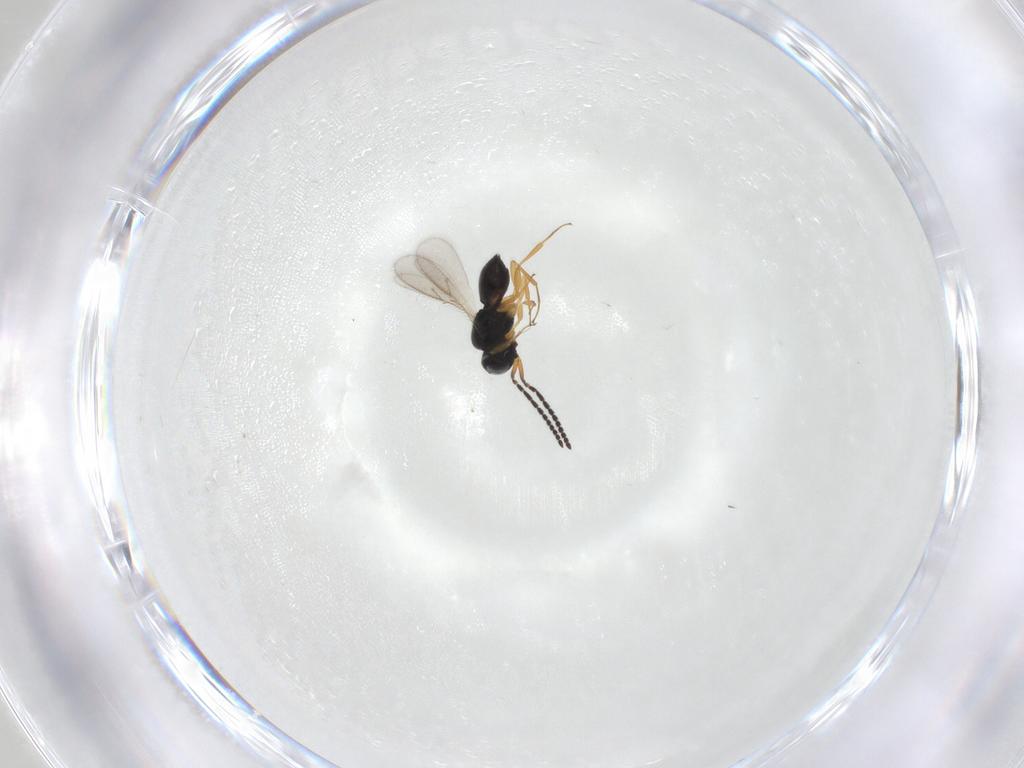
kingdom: Animalia
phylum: Arthropoda
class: Insecta
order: Hymenoptera
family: Scelionidae
